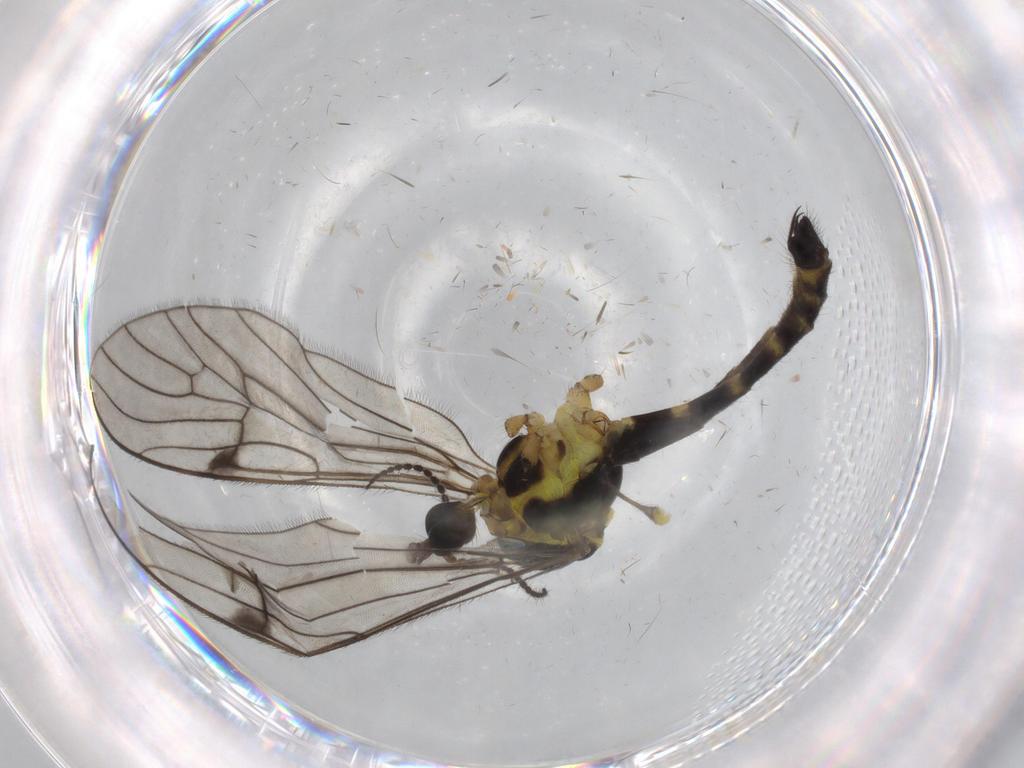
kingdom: Animalia
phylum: Arthropoda
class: Insecta
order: Diptera
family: Limoniidae
